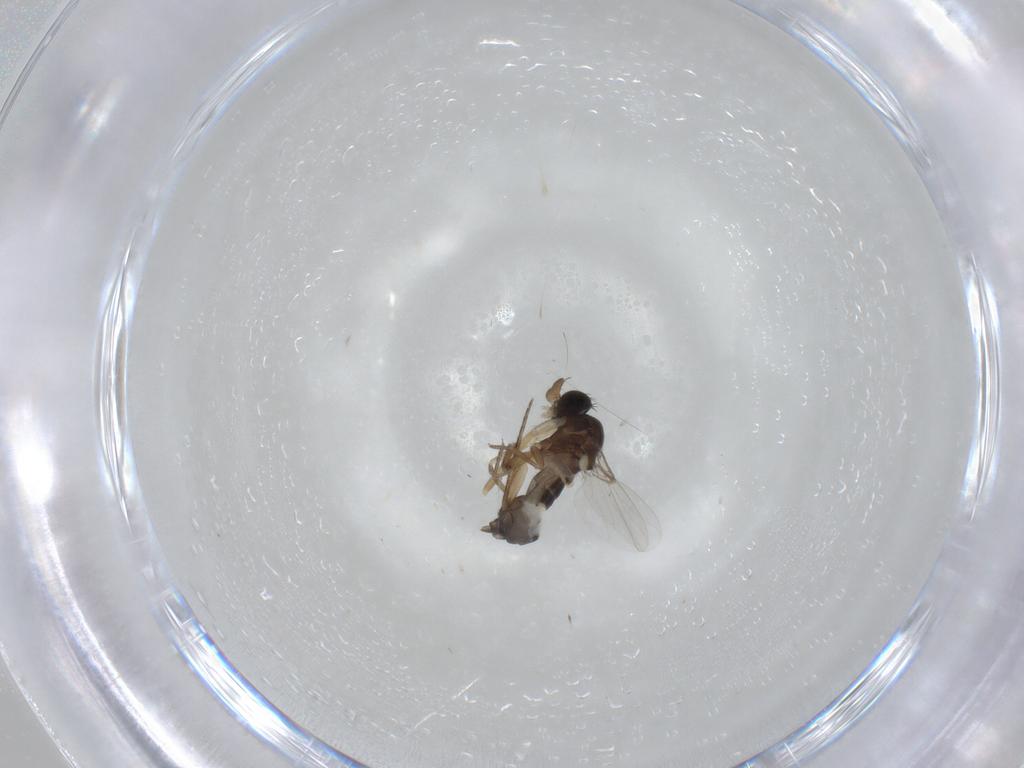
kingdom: Animalia
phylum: Arthropoda
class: Insecta
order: Diptera
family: Phoridae
